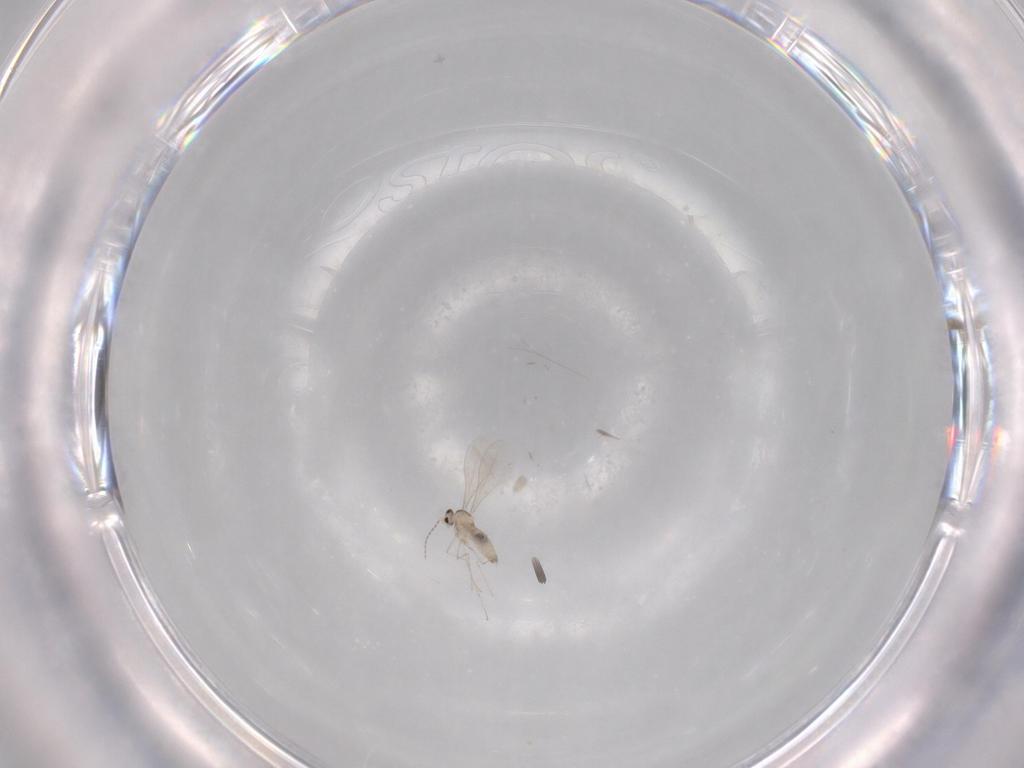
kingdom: Animalia
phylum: Arthropoda
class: Insecta
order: Diptera
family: Cecidomyiidae
